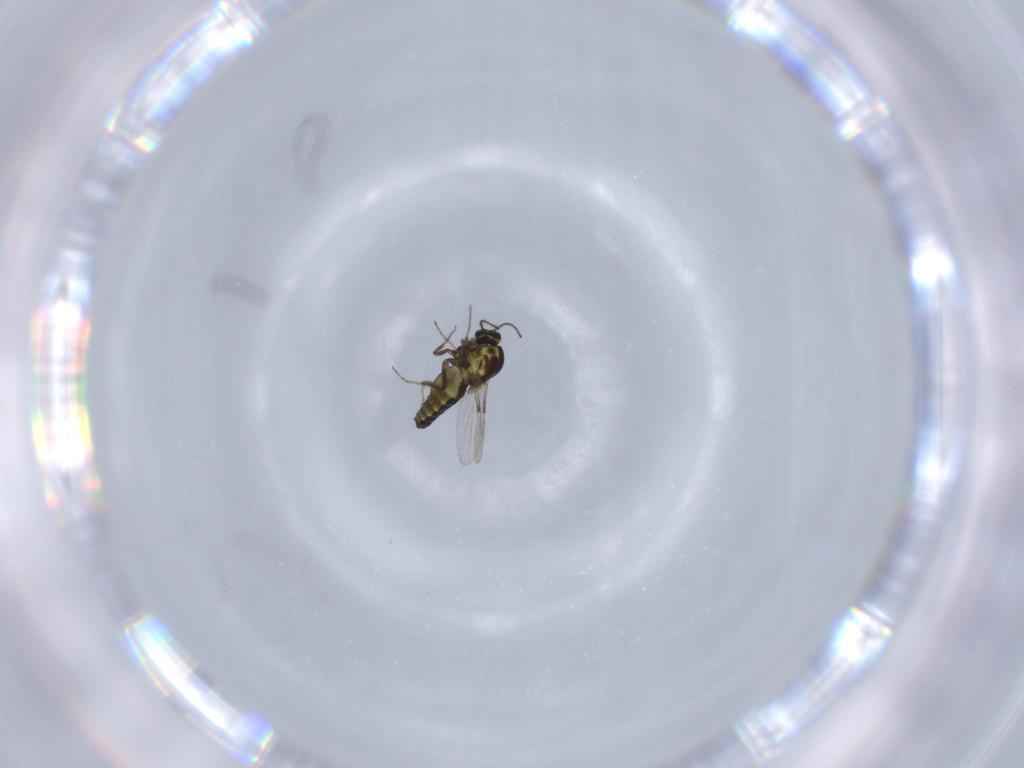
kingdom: Animalia
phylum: Arthropoda
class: Insecta
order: Diptera
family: Ceratopogonidae
